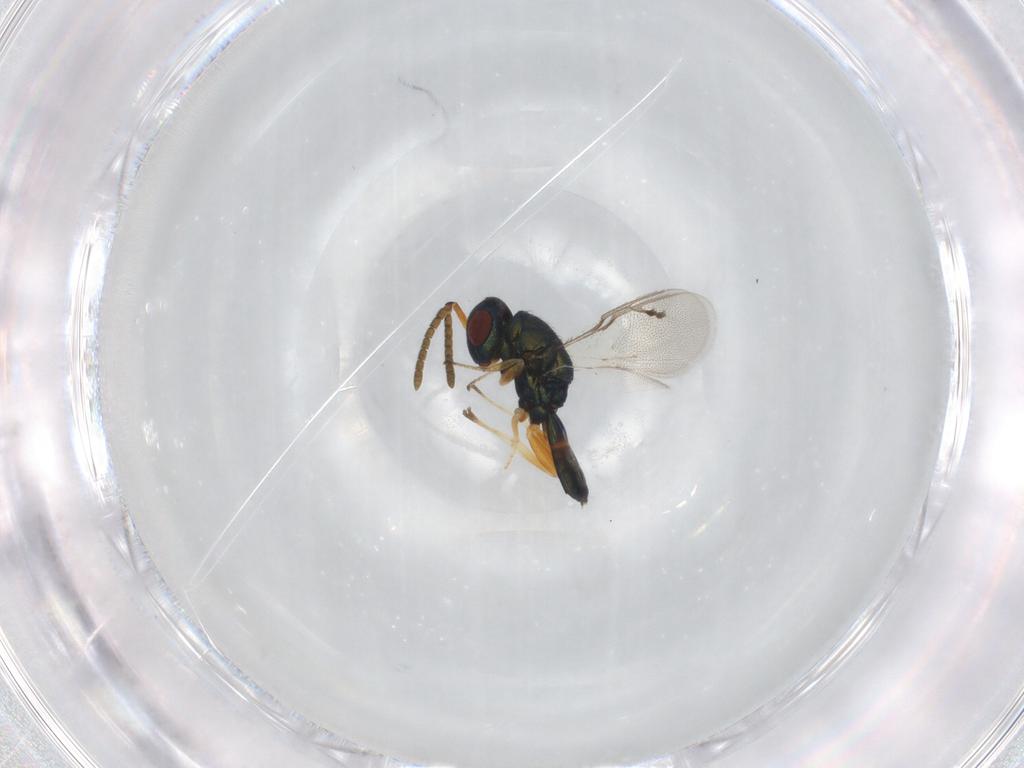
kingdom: Animalia
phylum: Arthropoda
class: Insecta
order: Hymenoptera
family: Pteromalidae
